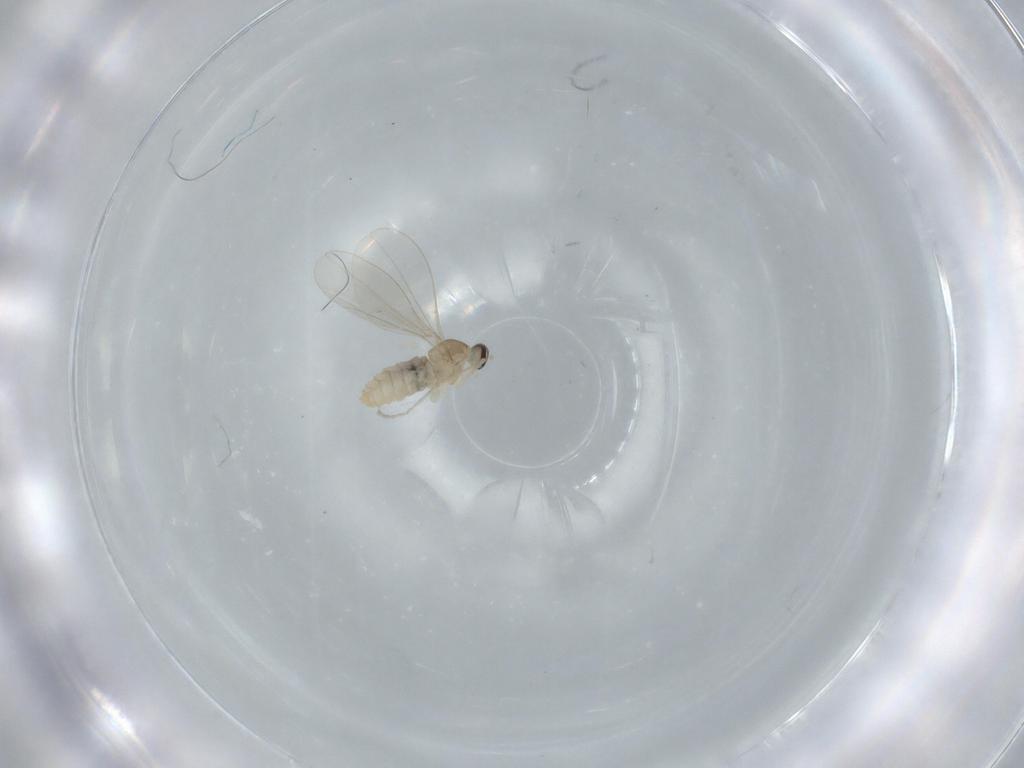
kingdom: Animalia
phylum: Arthropoda
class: Insecta
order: Diptera
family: Cecidomyiidae
